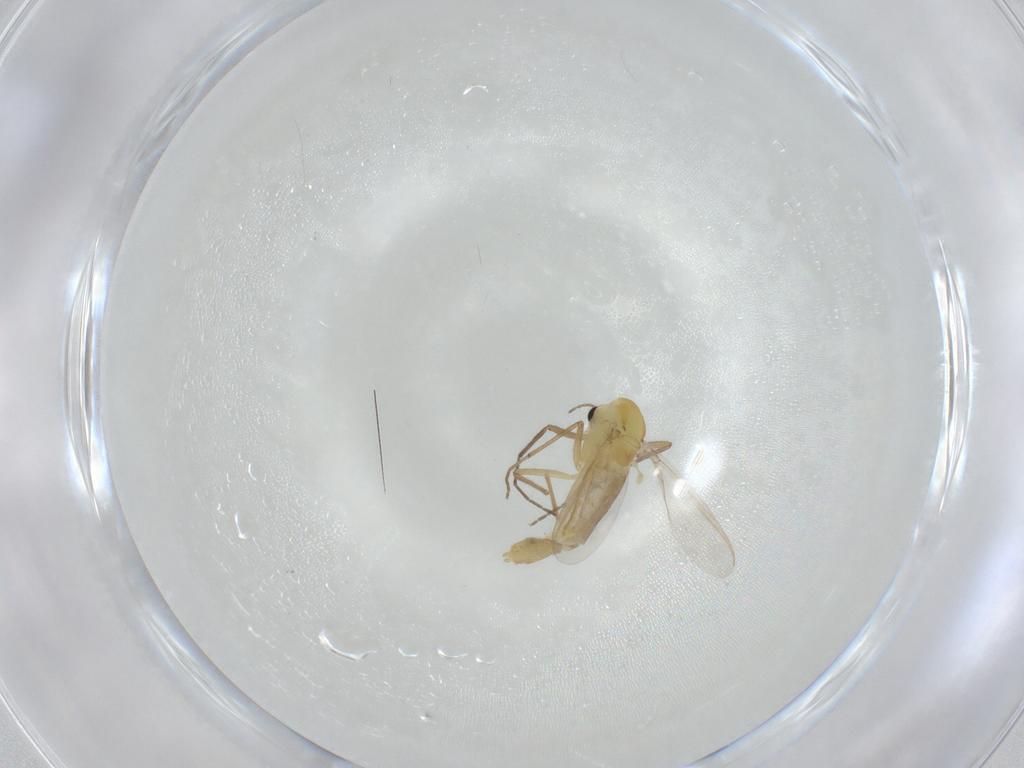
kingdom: Animalia
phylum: Arthropoda
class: Insecta
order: Diptera
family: Chironomidae
